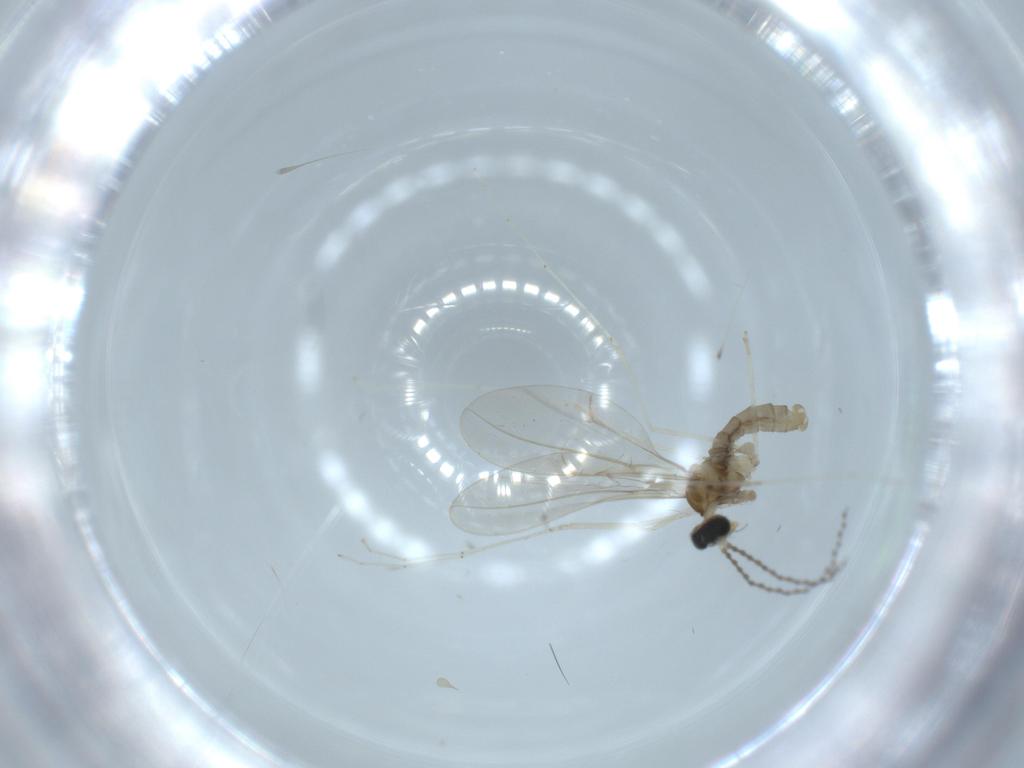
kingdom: Animalia
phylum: Arthropoda
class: Insecta
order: Diptera
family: Cecidomyiidae
